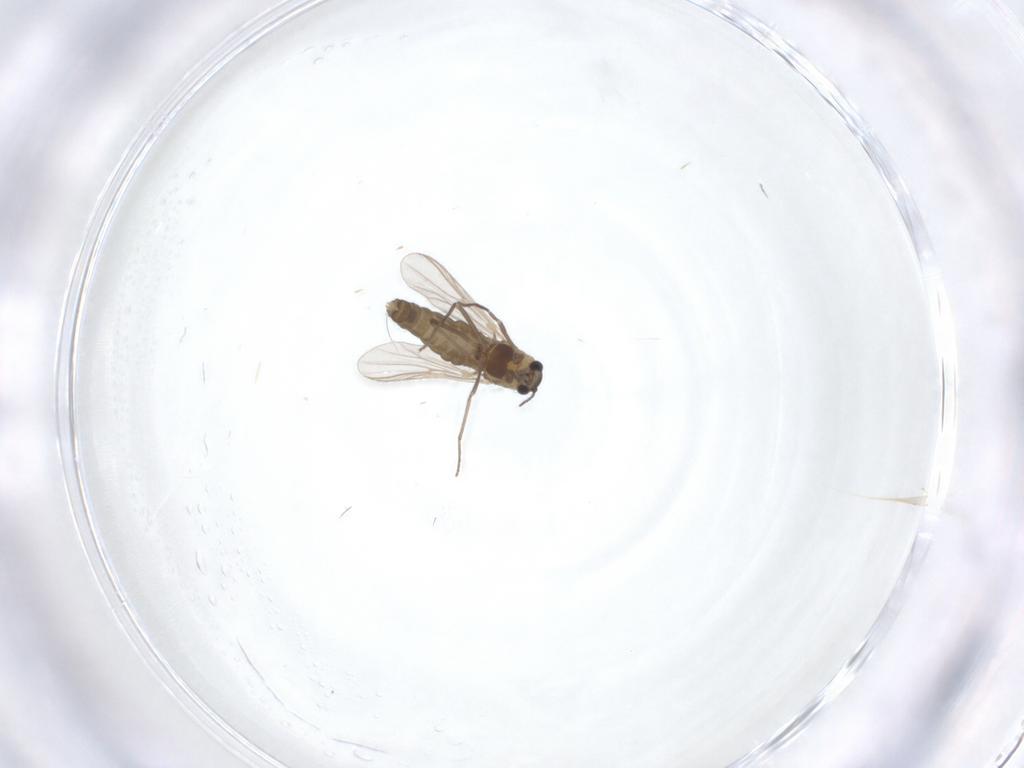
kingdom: Animalia
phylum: Arthropoda
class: Insecta
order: Diptera
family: Chironomidae
